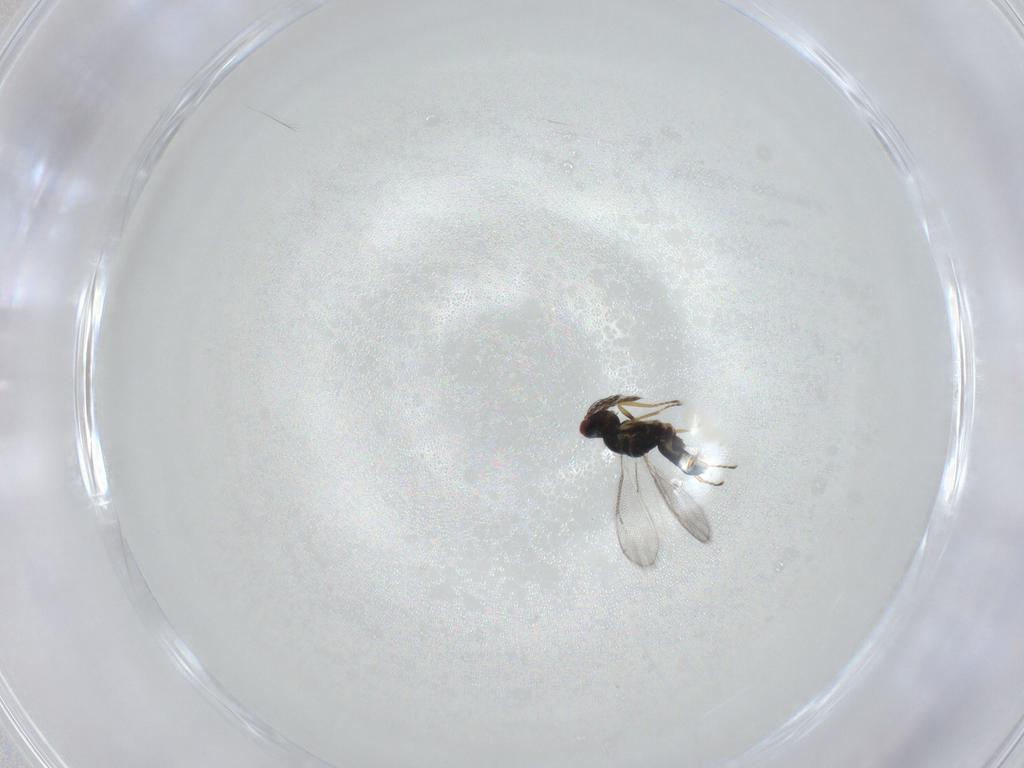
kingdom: Animalia
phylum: Arthropoda
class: Insecta
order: Hymenoptera
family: Eulophidae
